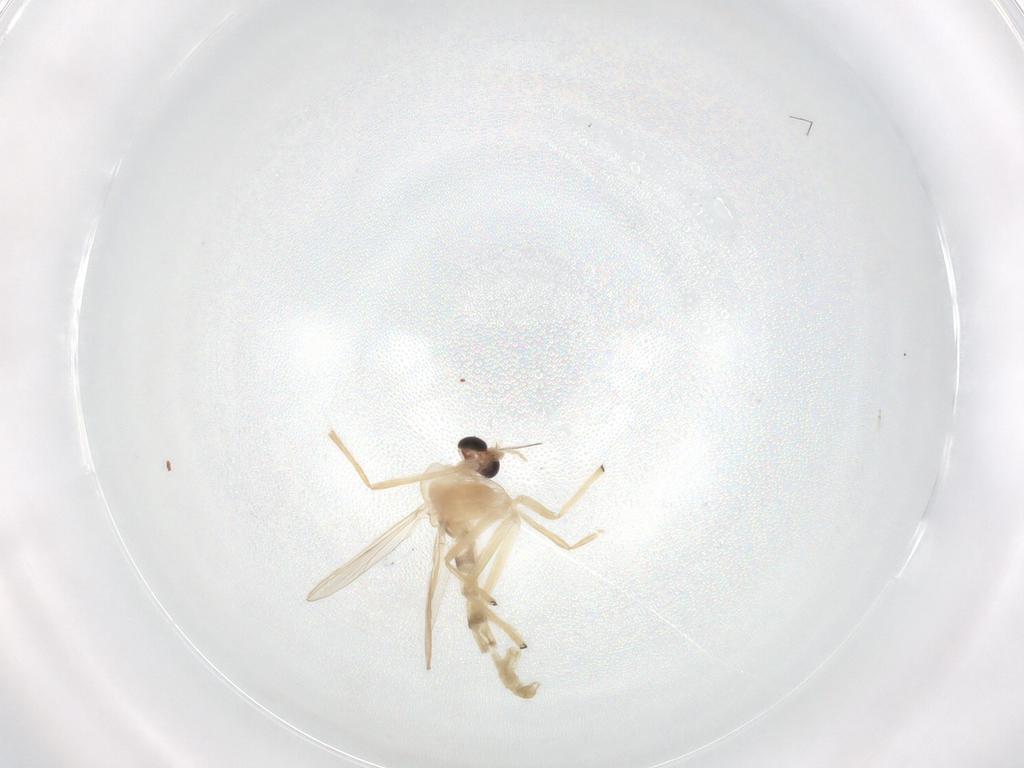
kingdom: Animalia
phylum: Arthropoda
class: Insecta
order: Diptera
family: Chironomidae
